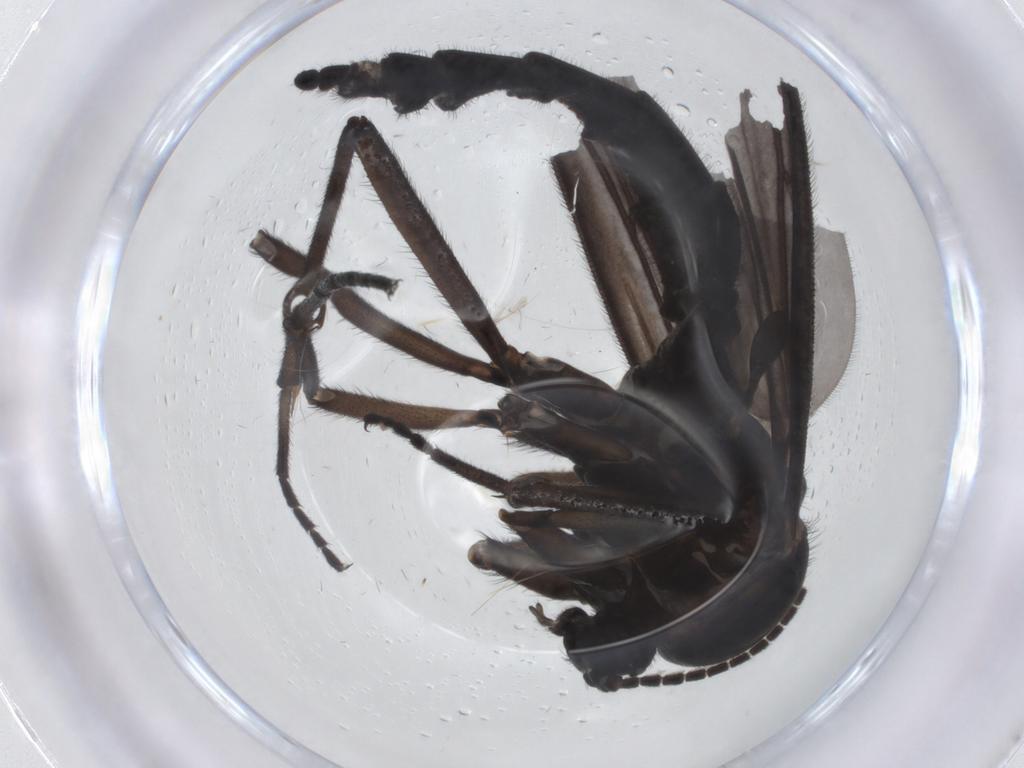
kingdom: Animalia
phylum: Arthropoda
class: Insecta
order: Diptera
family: Sciaridae
